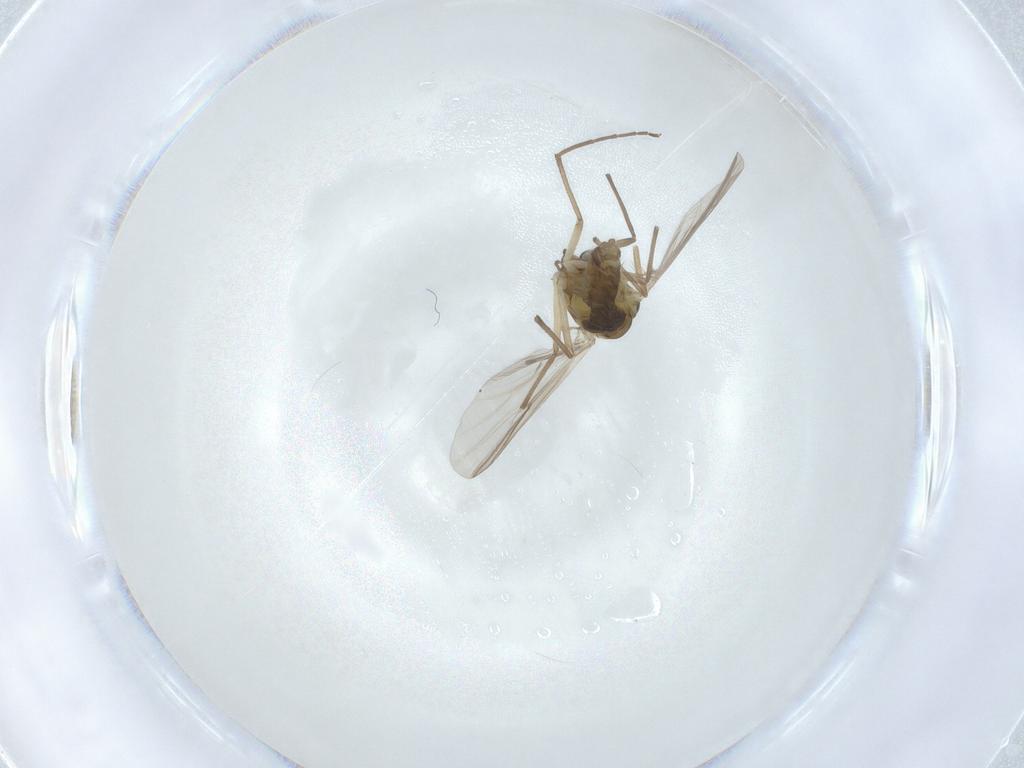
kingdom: Animalia
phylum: Arthropoda
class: Insecta
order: Diptera
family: Chironomidae
